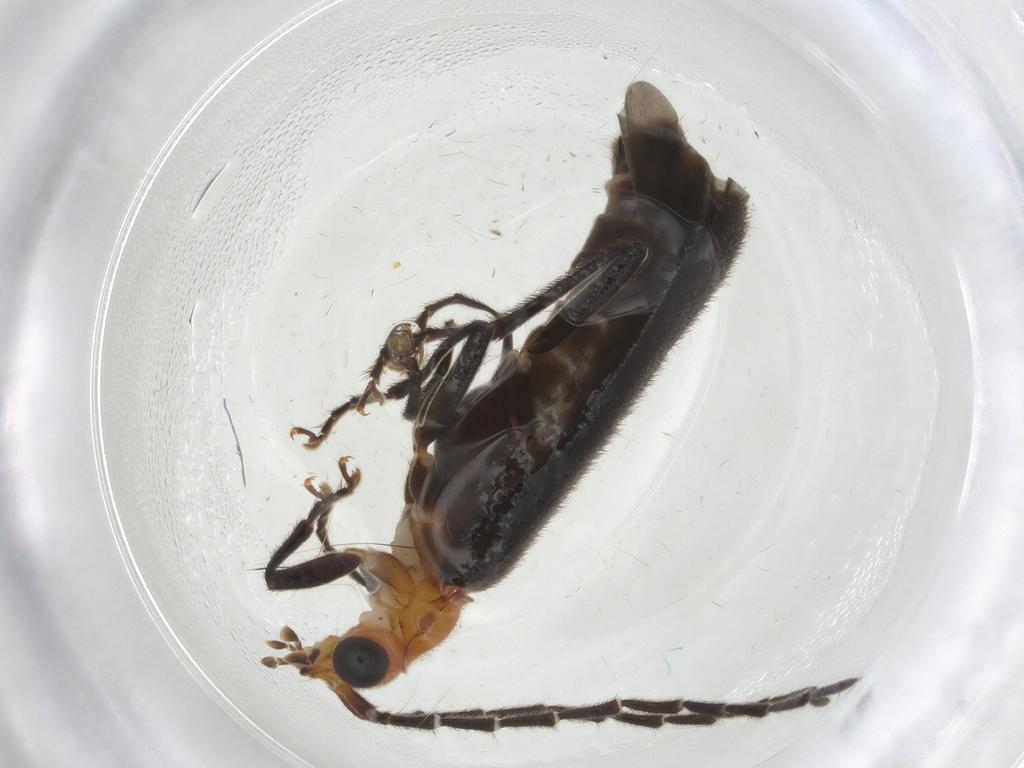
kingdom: Animalia
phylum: Arthropoda
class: Insecta
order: Coleoptera
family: Cantharidae
